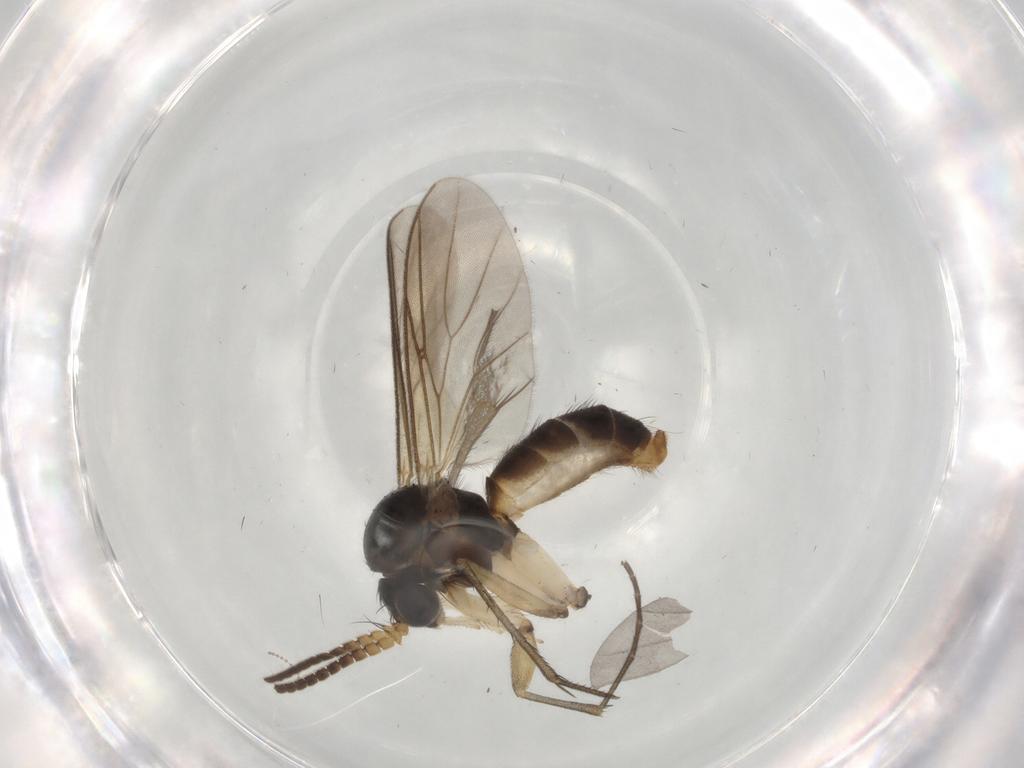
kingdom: Animalia
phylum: Arthropoda
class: Insecta
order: Diptera
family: Mycetophilidae
